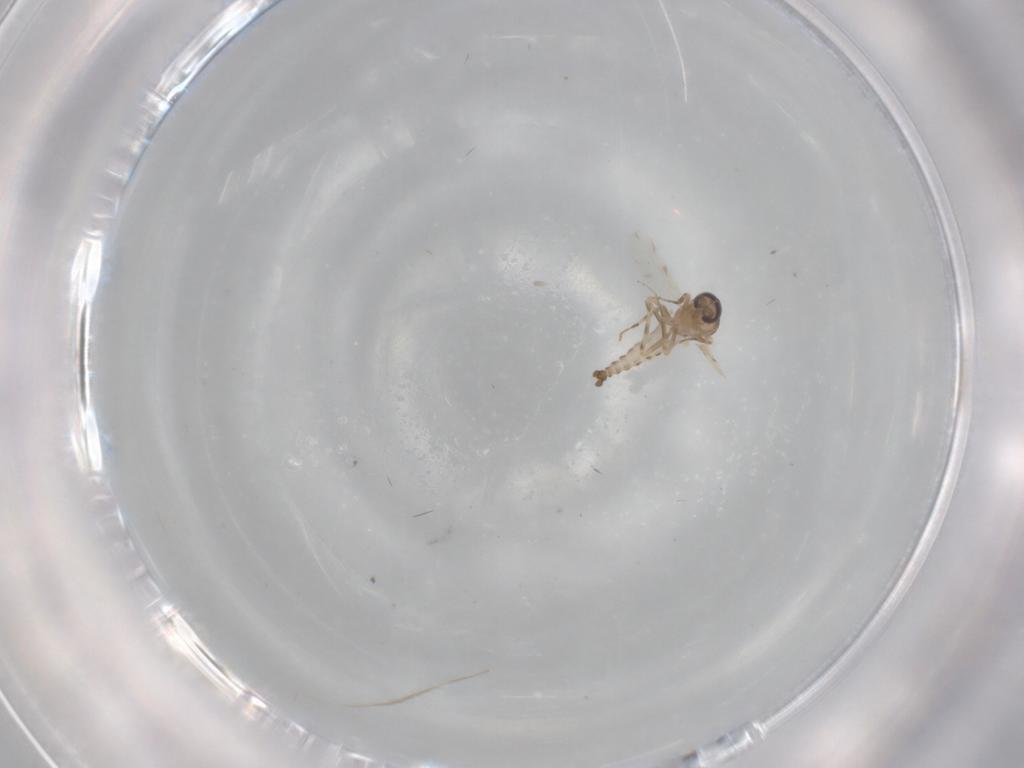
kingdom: Animalia
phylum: Arthropoda
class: Insecta
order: Diptera
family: Ceratopogonidae
